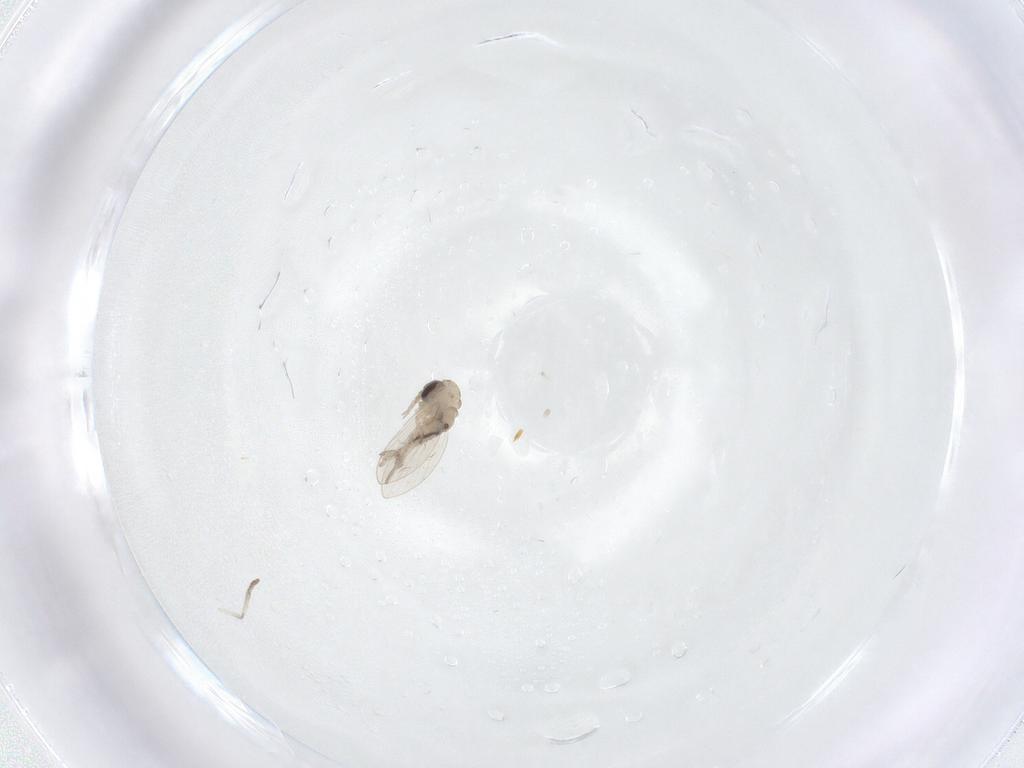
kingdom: Animalia
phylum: Arthropoda
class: Insecta
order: Diptera
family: Psychodidae
